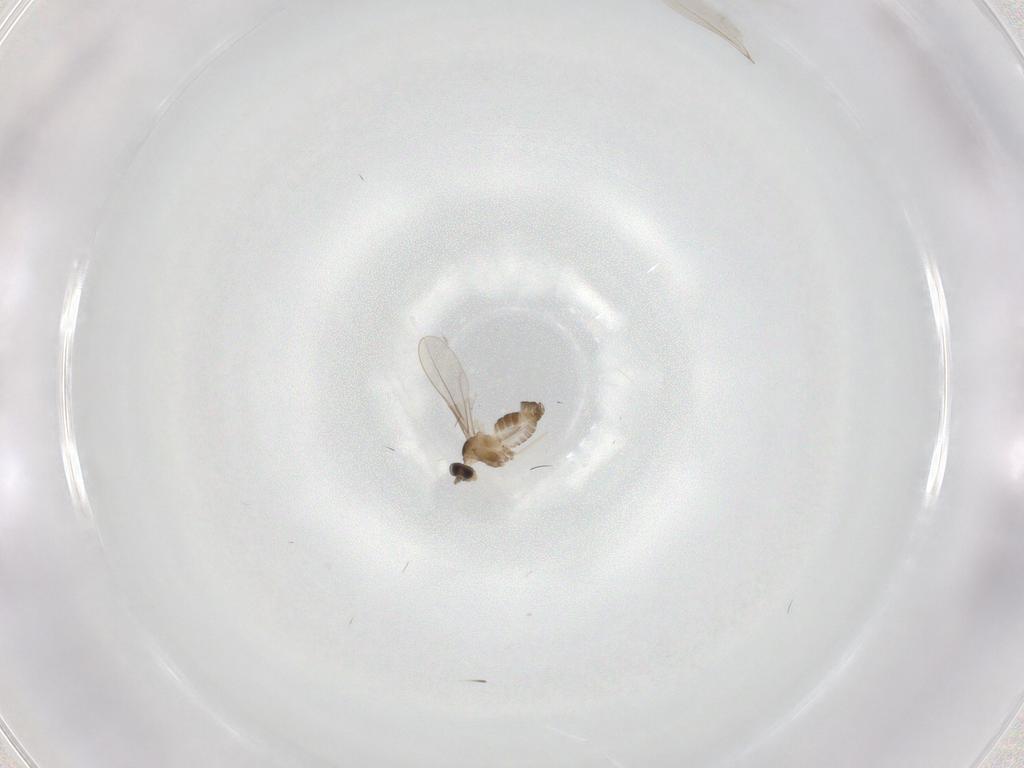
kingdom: Animalia
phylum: Arthropoda
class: Insecta
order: Diptera
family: Cecidomyiidae
